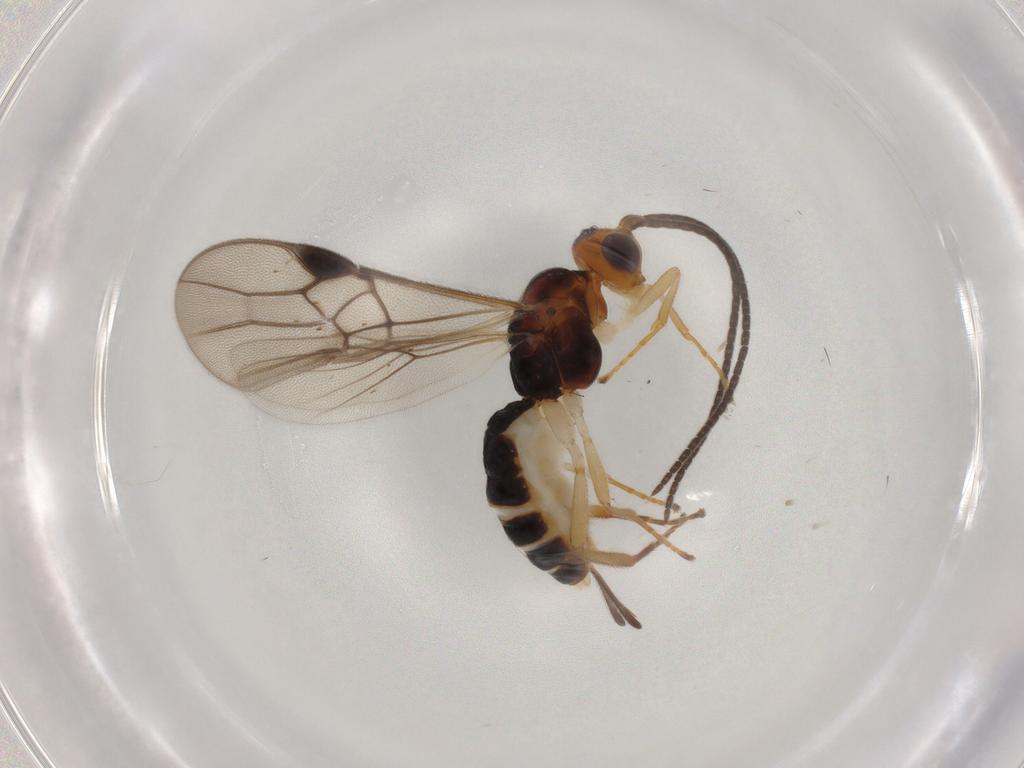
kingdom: Animalia
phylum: Arthropoda
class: Insecta
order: Hymenoptera
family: Braconidae
